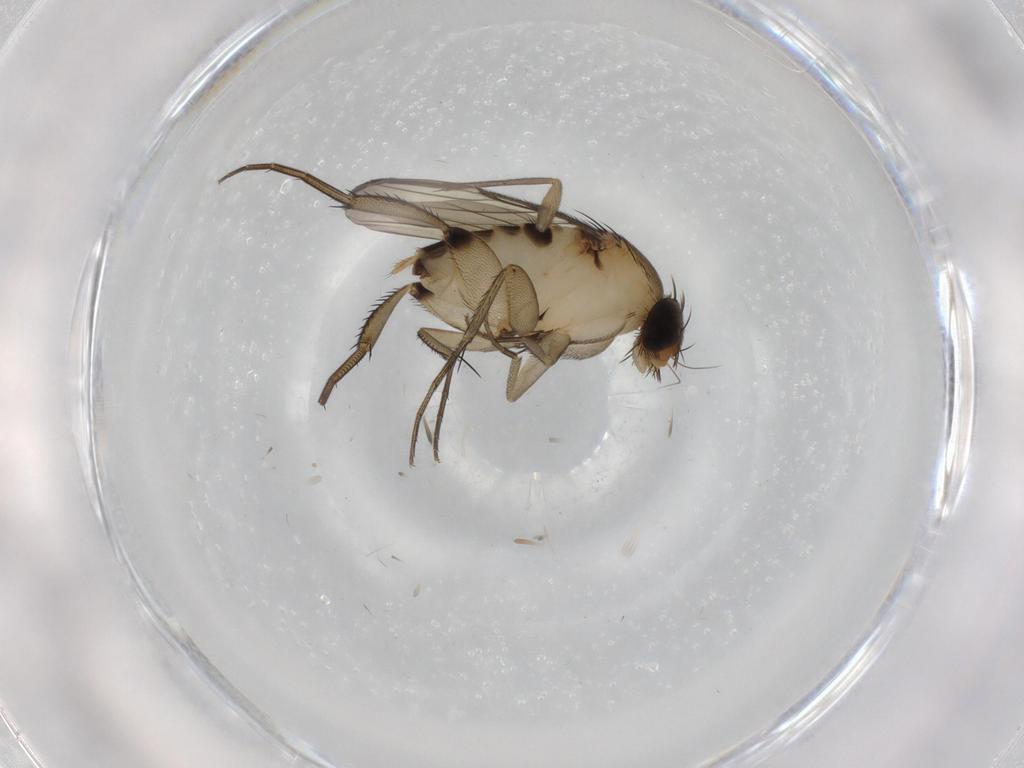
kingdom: Animalia
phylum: Arthropoda
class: Insecta
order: Diptera
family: Phoridae
